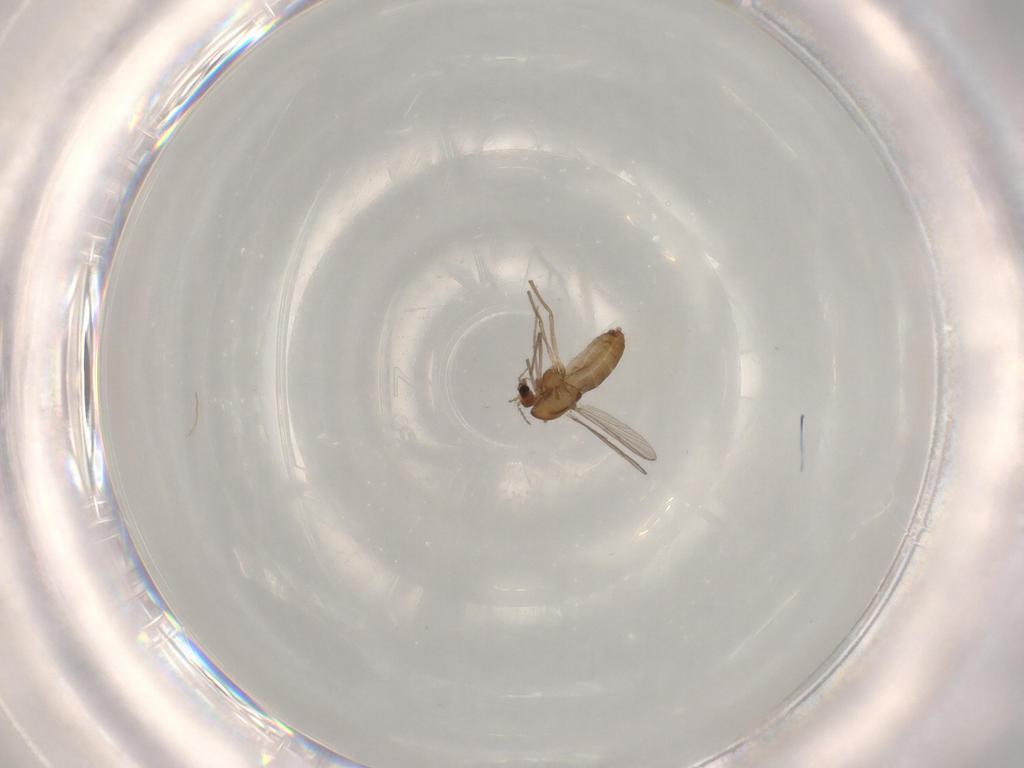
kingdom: Animalia
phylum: Arthropoda
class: Insecta
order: Diptera
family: Chironomidae
